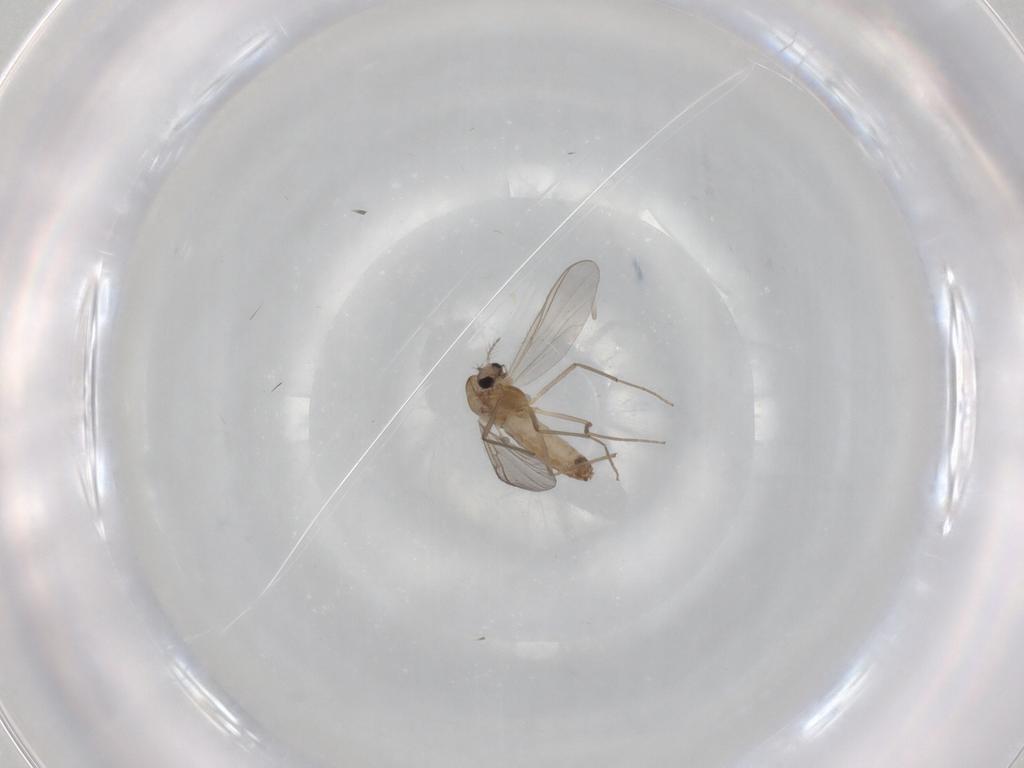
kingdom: Animalia
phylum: Arthropoda
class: Insecta
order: Diptera
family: Chironomidae
